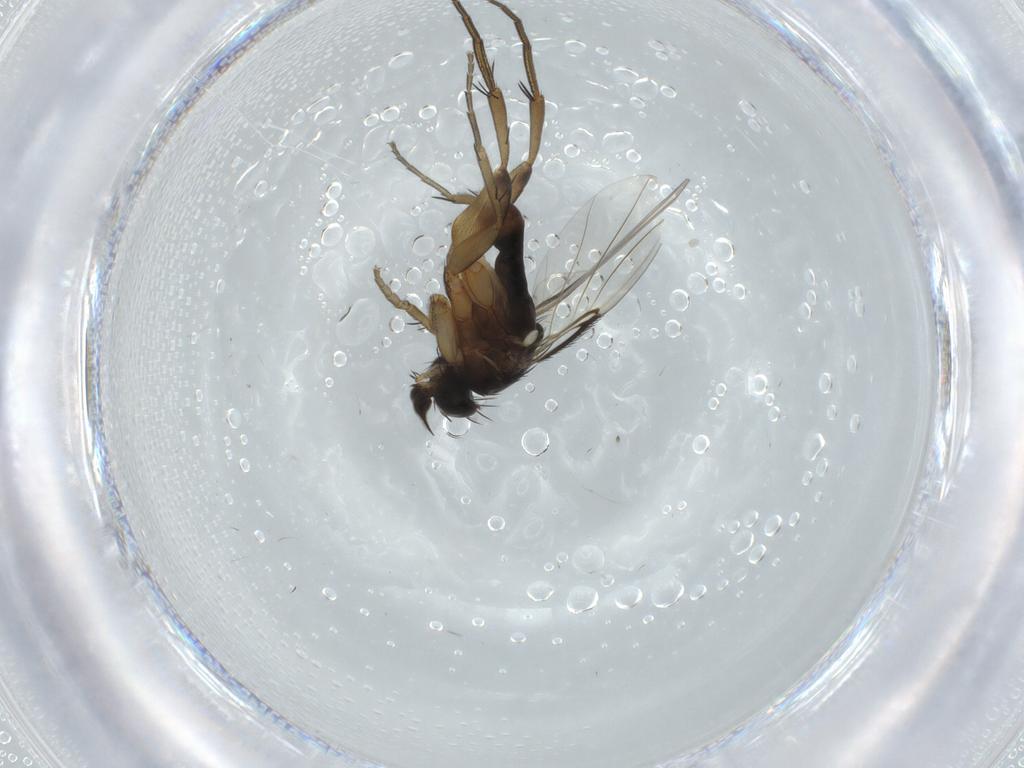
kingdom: Animalia
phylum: Arthropoda
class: Insecta
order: Diptera
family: Phoridae
